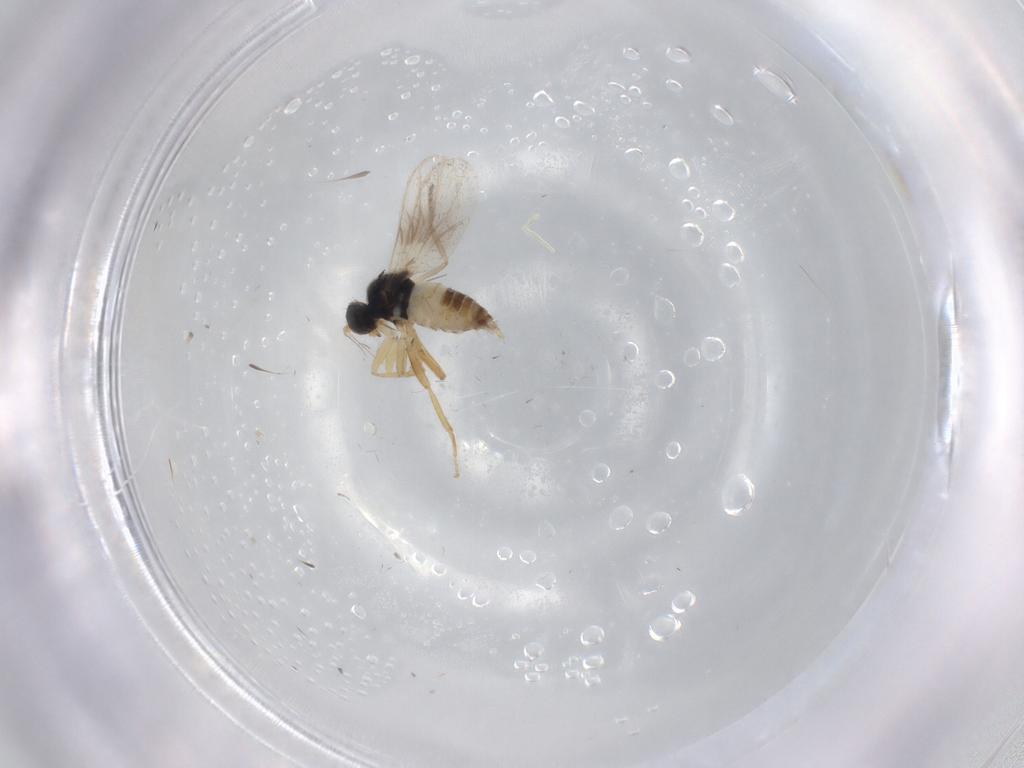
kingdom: Animalia
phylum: Arthropoda
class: Insecta
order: Diptera
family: Hybotidae
